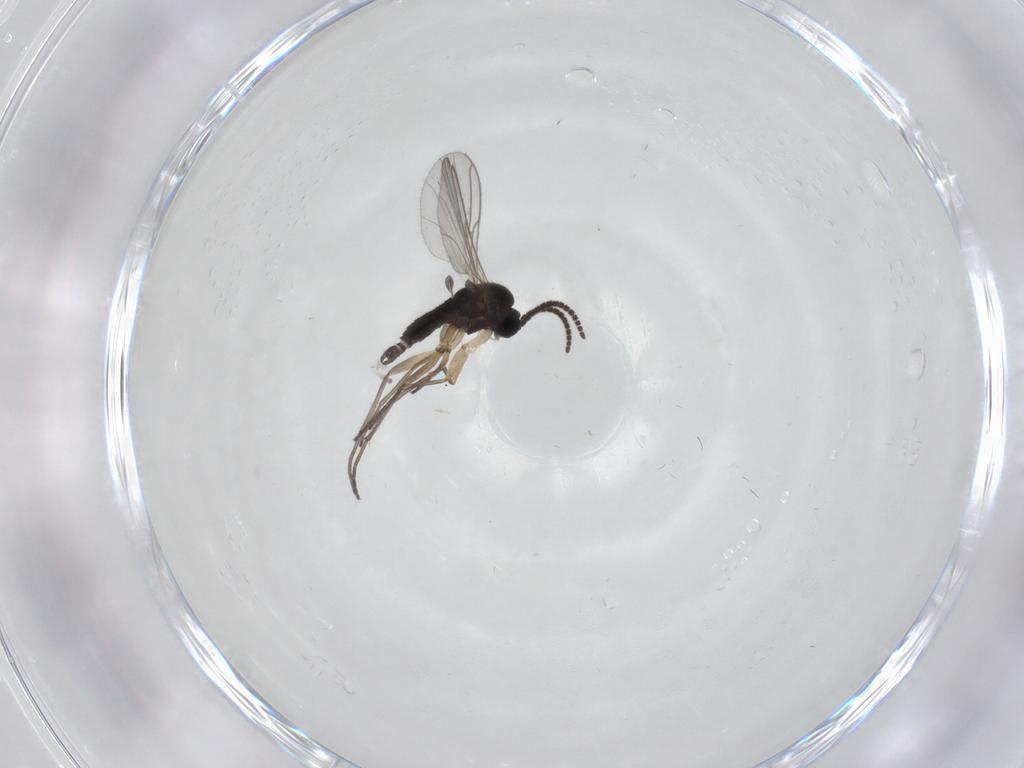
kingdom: Animalia
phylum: Arthropoda
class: Insecta
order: Diptera
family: Sciaridae
